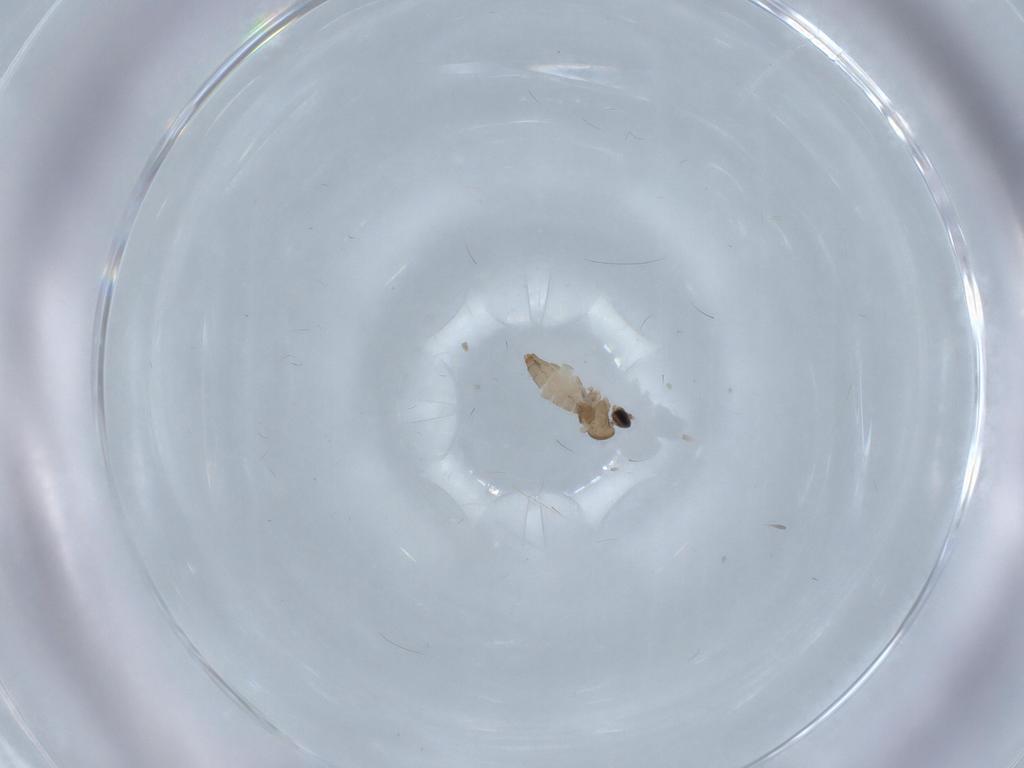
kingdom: Animalia
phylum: Arthropoda
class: Insecta
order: Diptera
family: Cecidomyiidae
